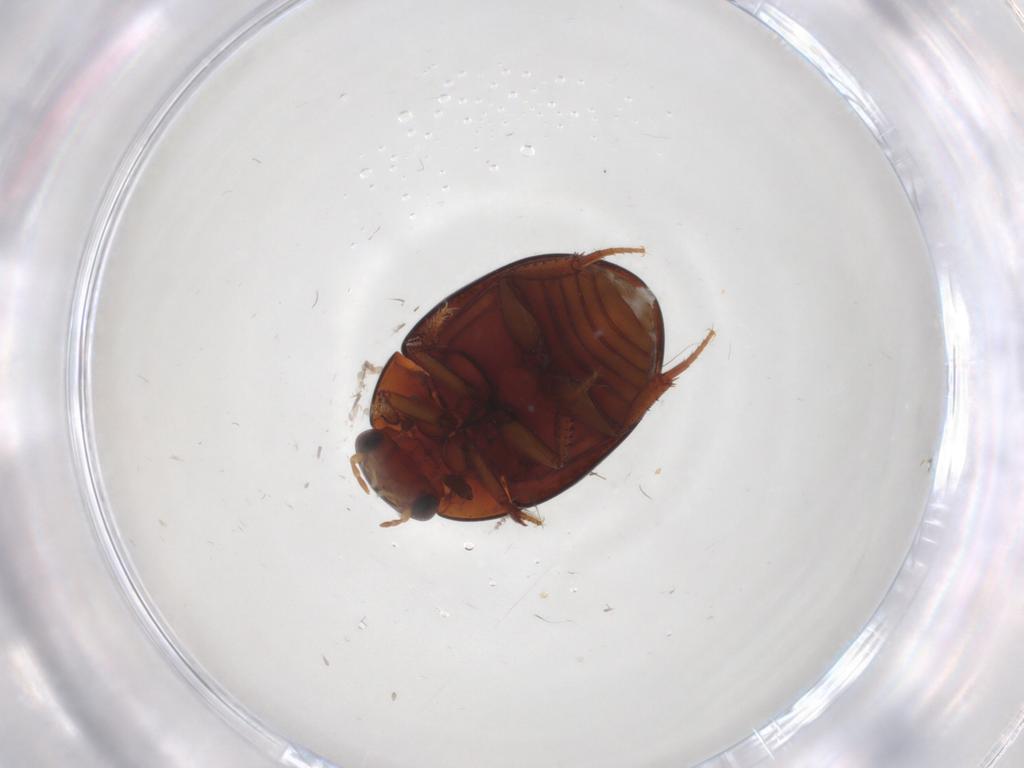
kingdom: Animalia
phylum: Arthropoda
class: Insecta
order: Coleoptera
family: Hydrophilidae
